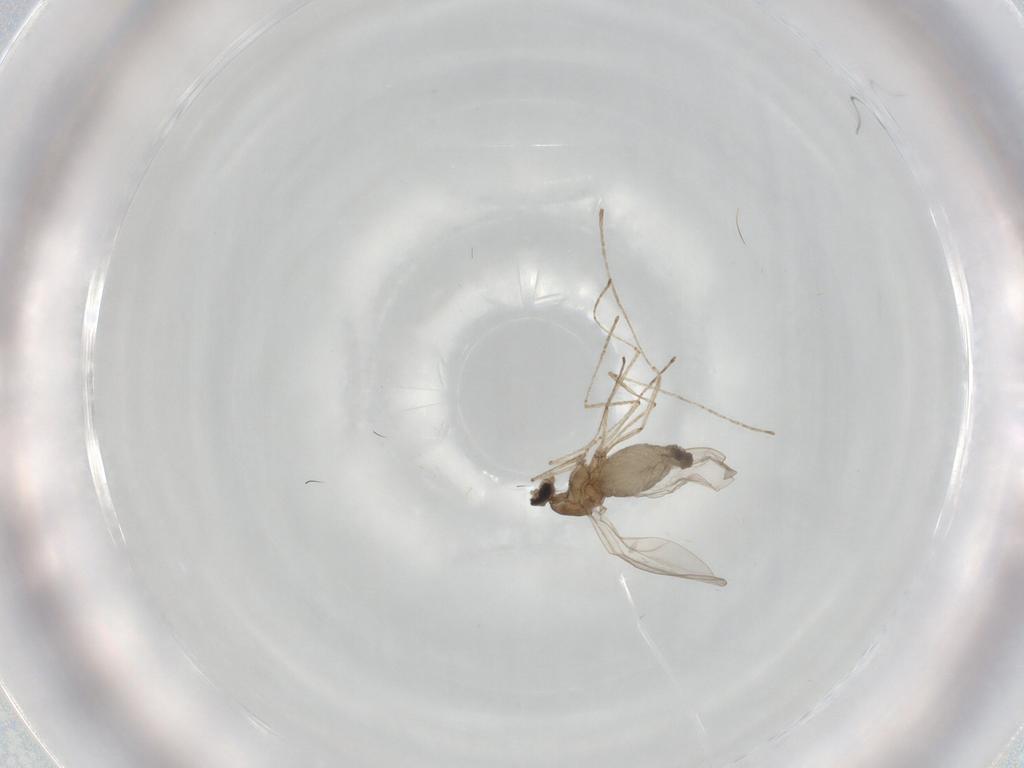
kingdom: Animalia
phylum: Arthropoda
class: Insecta
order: Diptera
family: Cecidomyiidae
